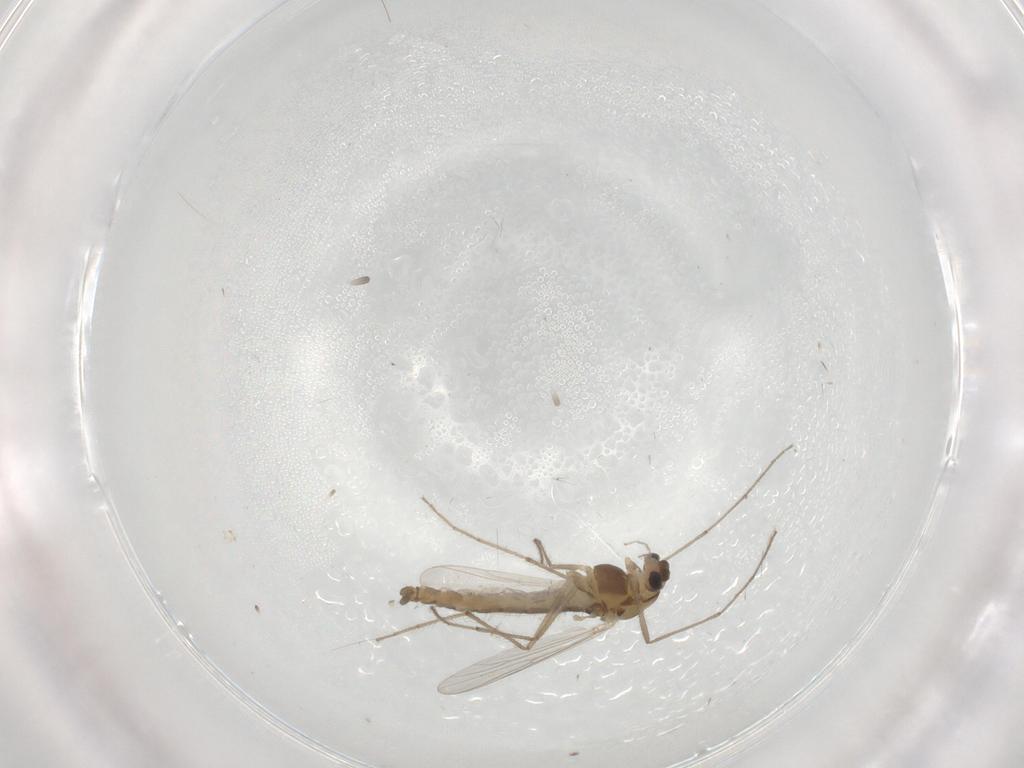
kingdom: Animalia
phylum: Arthropoda
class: Insecta
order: Diptera
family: Chironomidae
